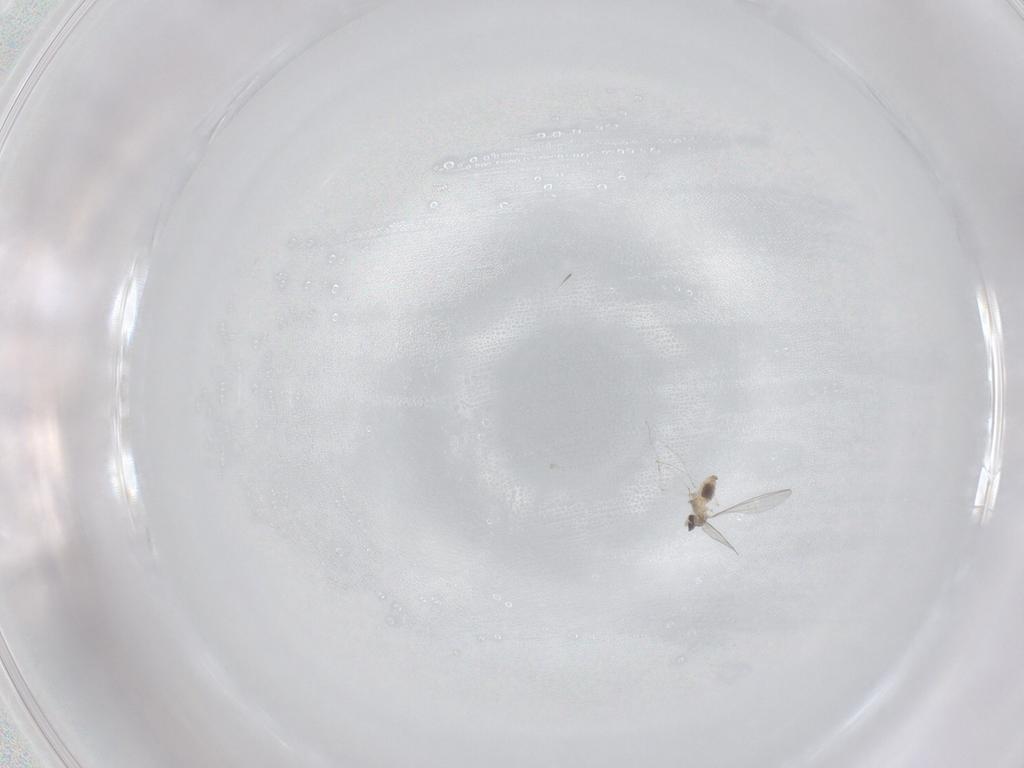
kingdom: Animalia
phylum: Arthropoda
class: Insecta
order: Diptera
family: Cecidomyiidae
